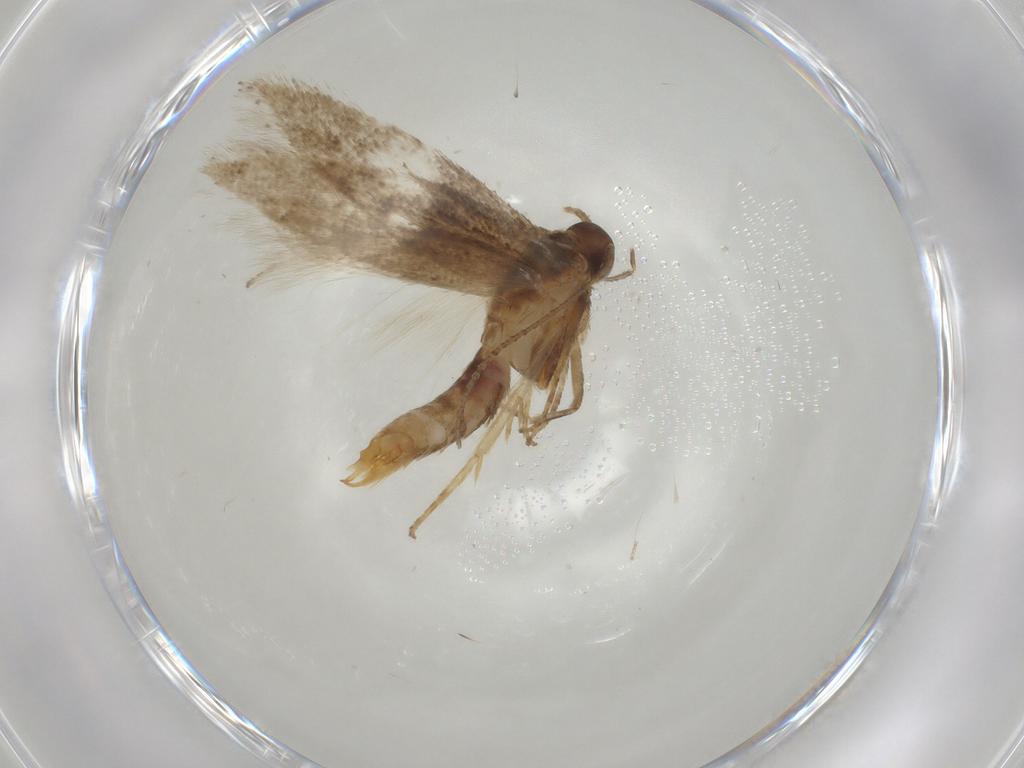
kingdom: Animalia
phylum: Arthropoda
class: Insecta
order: Lepidoptera
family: Gelechiidae
